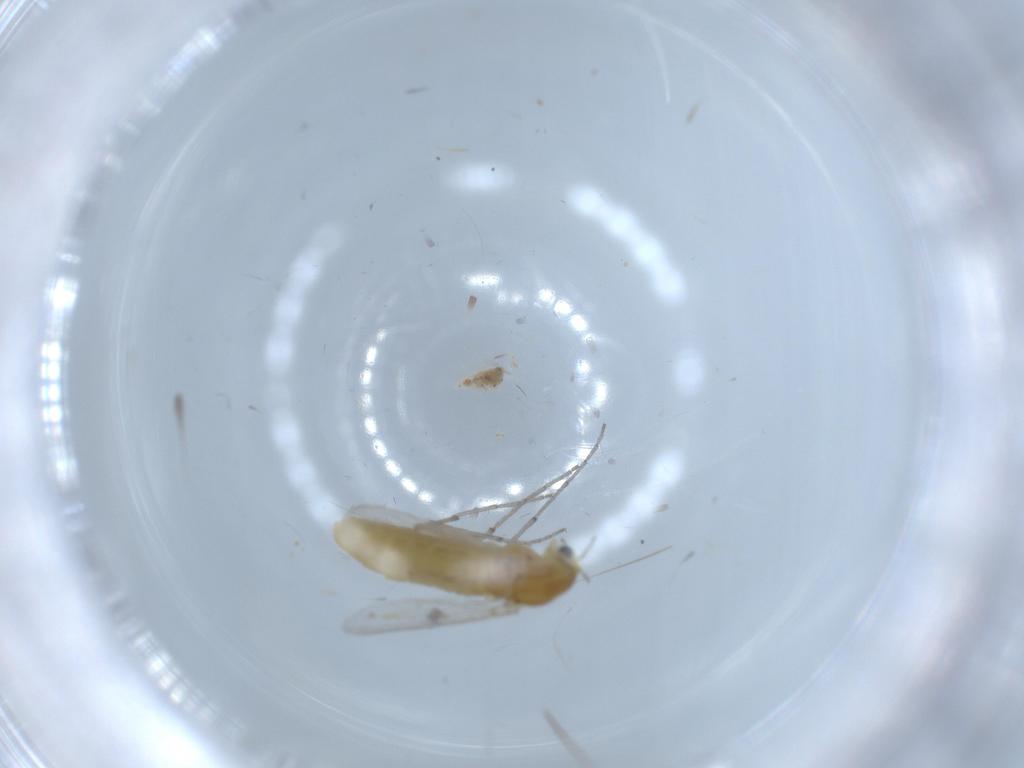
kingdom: Animalia
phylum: Arthropoda
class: Insecta
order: Diptera
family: Chironomidae
